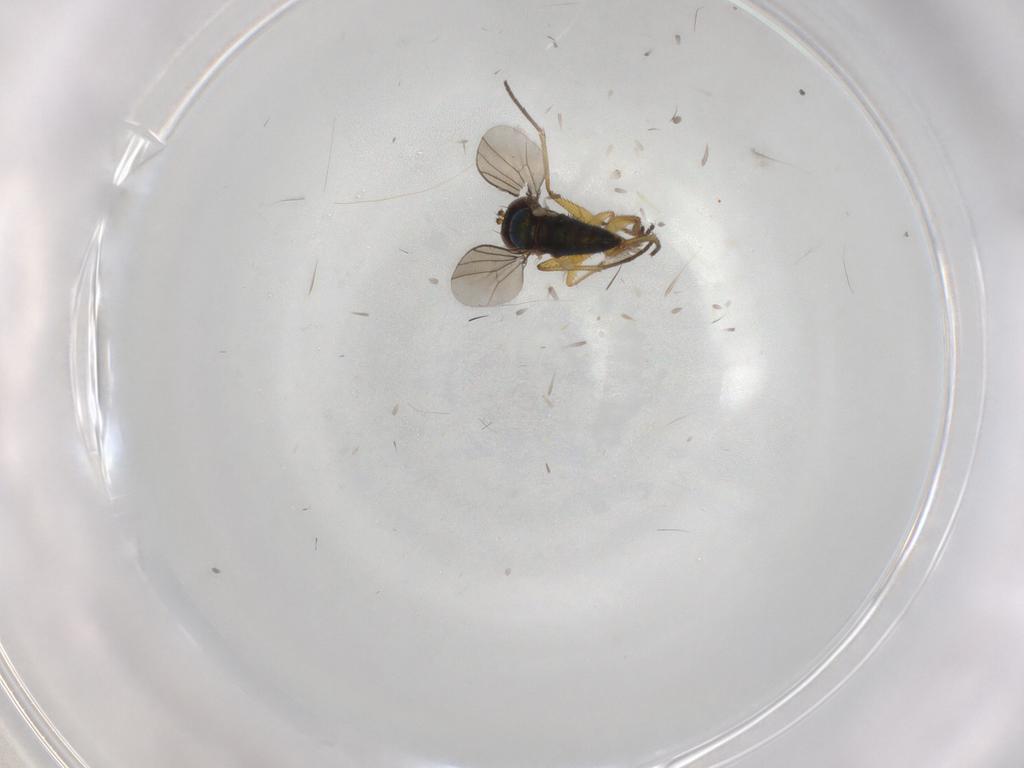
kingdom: Animalia
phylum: Arthropoda
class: Insecta
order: Diptera
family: Dolichopodidae
